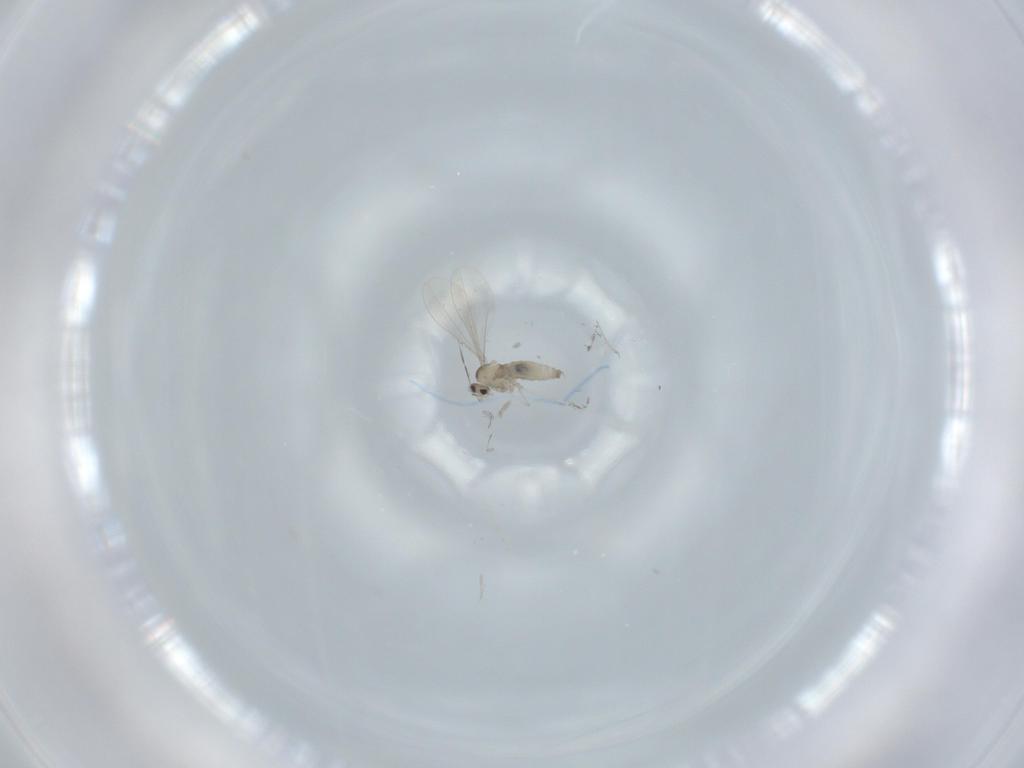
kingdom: Animalia
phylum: Arthropoda
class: Insecta
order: Diptera
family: Cecidomyiidae
